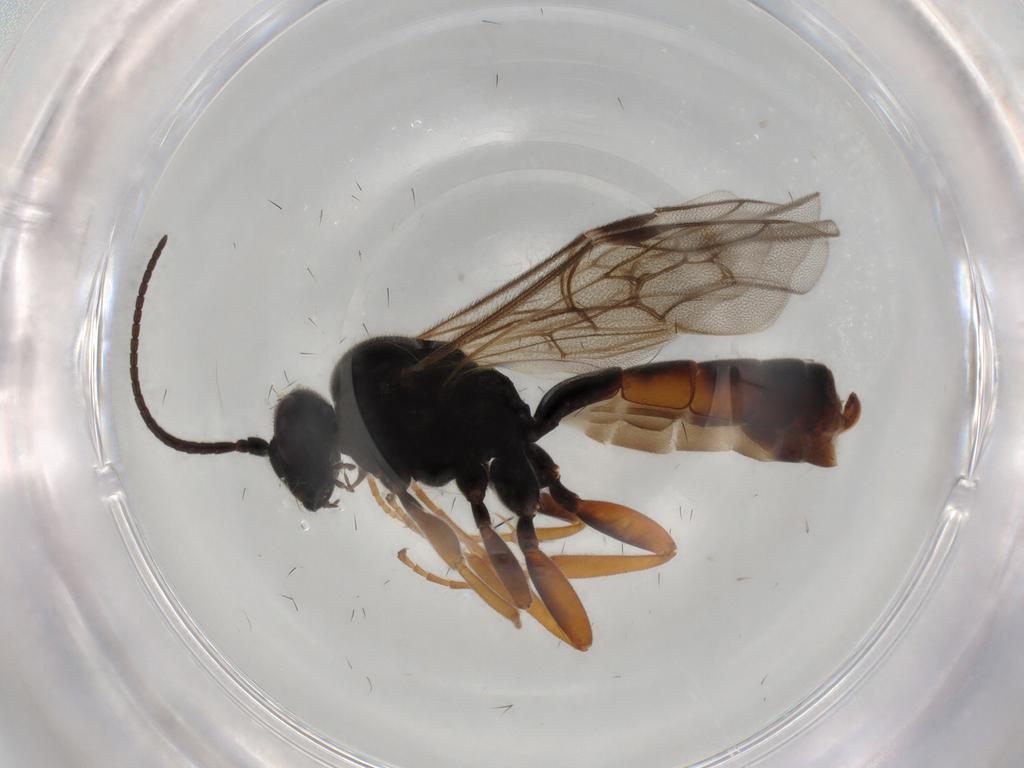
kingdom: Animalia
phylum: Arthropoda
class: Insecta
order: Hymenoptera
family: Ichneumonidae
